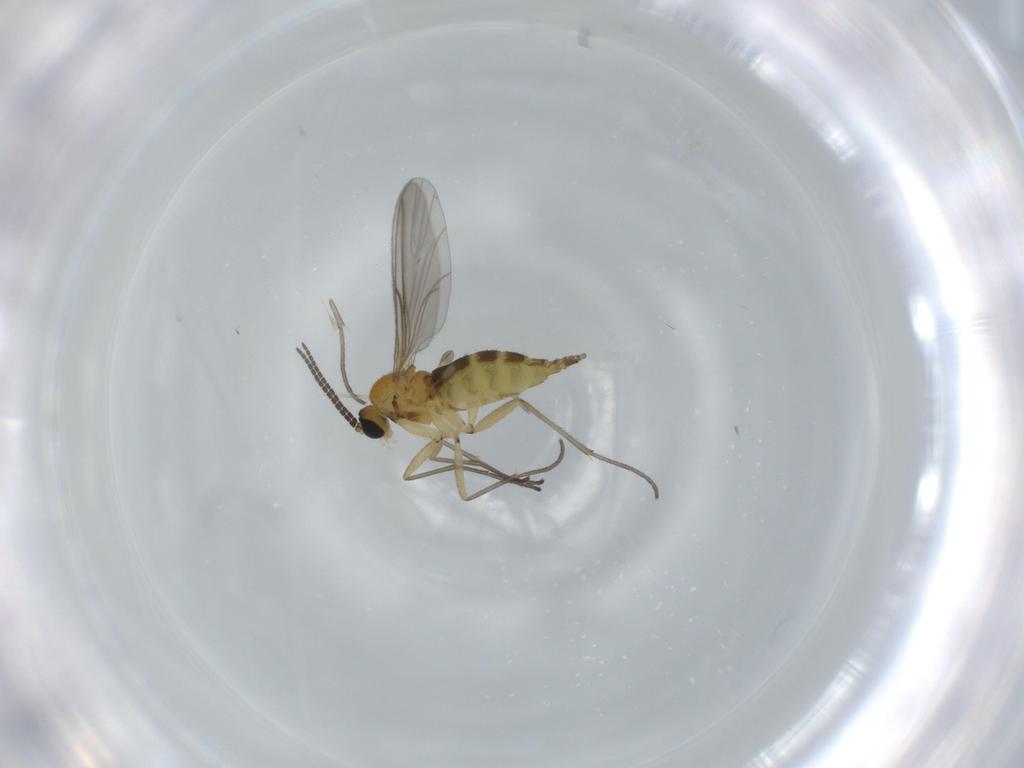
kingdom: Animalia
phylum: Arthropoda
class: Insecta
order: Diptera
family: Sciaridae
